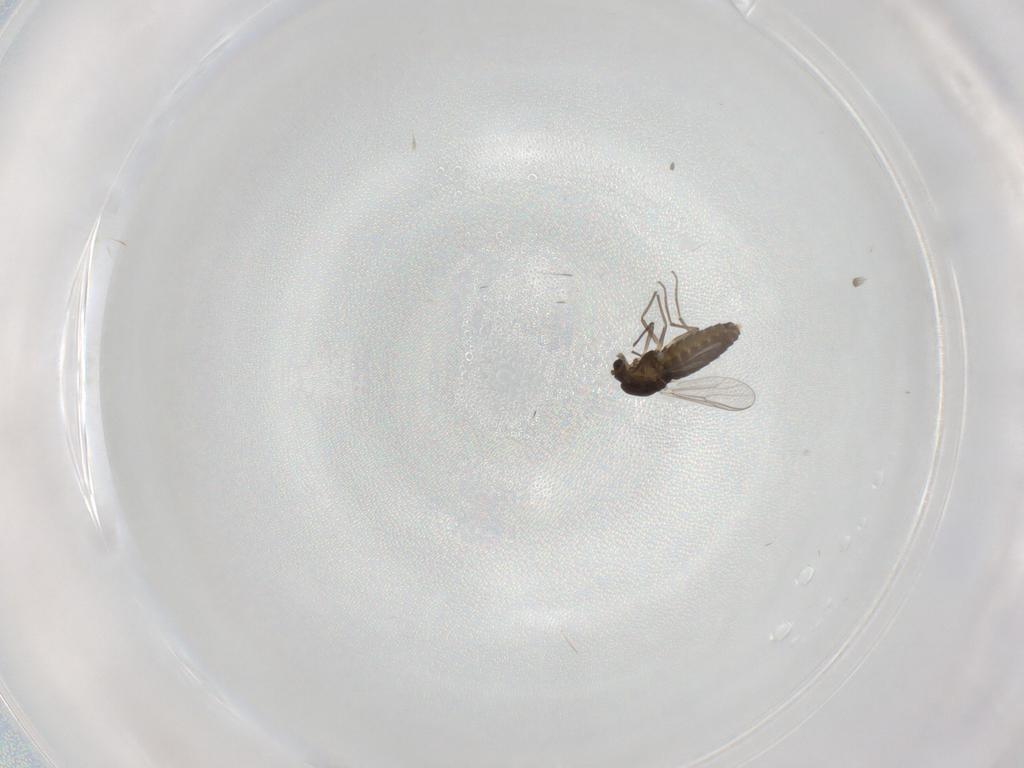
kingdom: Animalia
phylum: Arthropoda
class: Insecta
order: Diptera
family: Chironomidae
